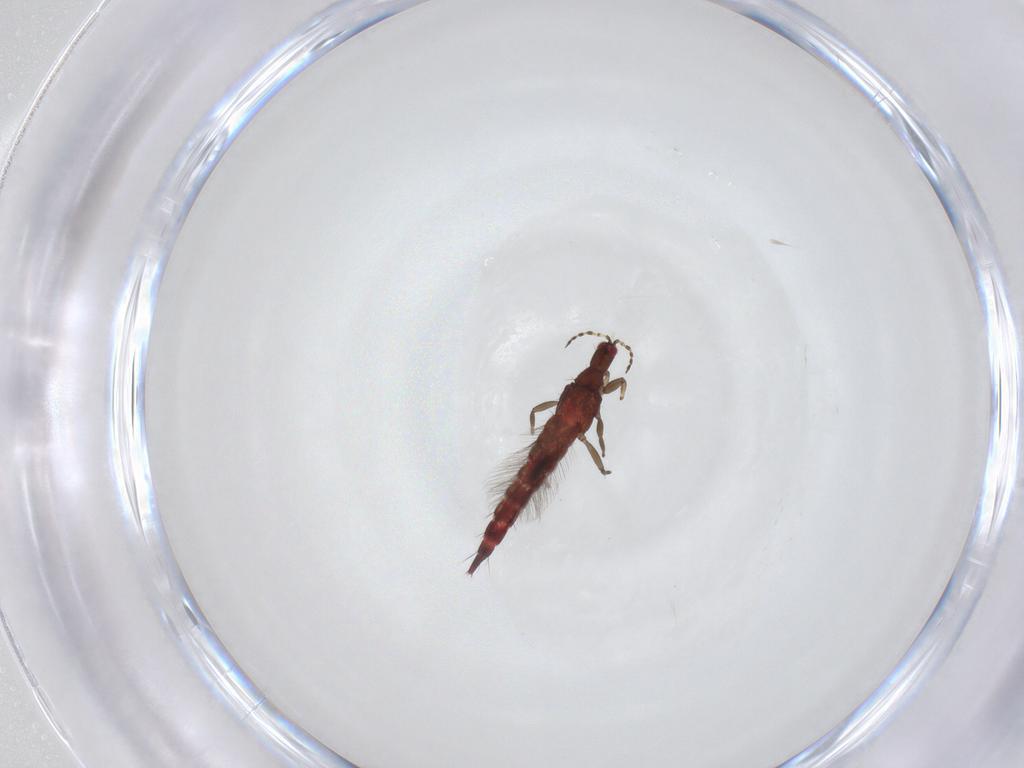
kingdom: Animalia
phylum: Arthropoda
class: Insecta
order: Thysanoptera
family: Phlaeothripidae
